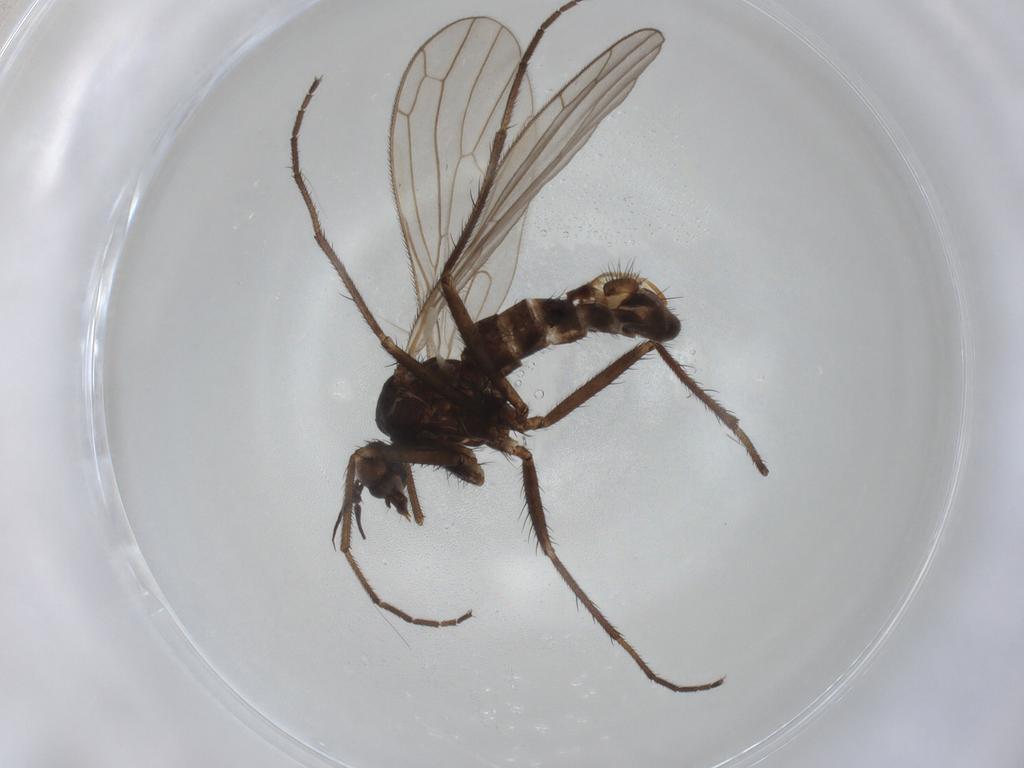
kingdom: Animalia
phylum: Arthropoda
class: Insecta
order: Diptera
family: Empididae
